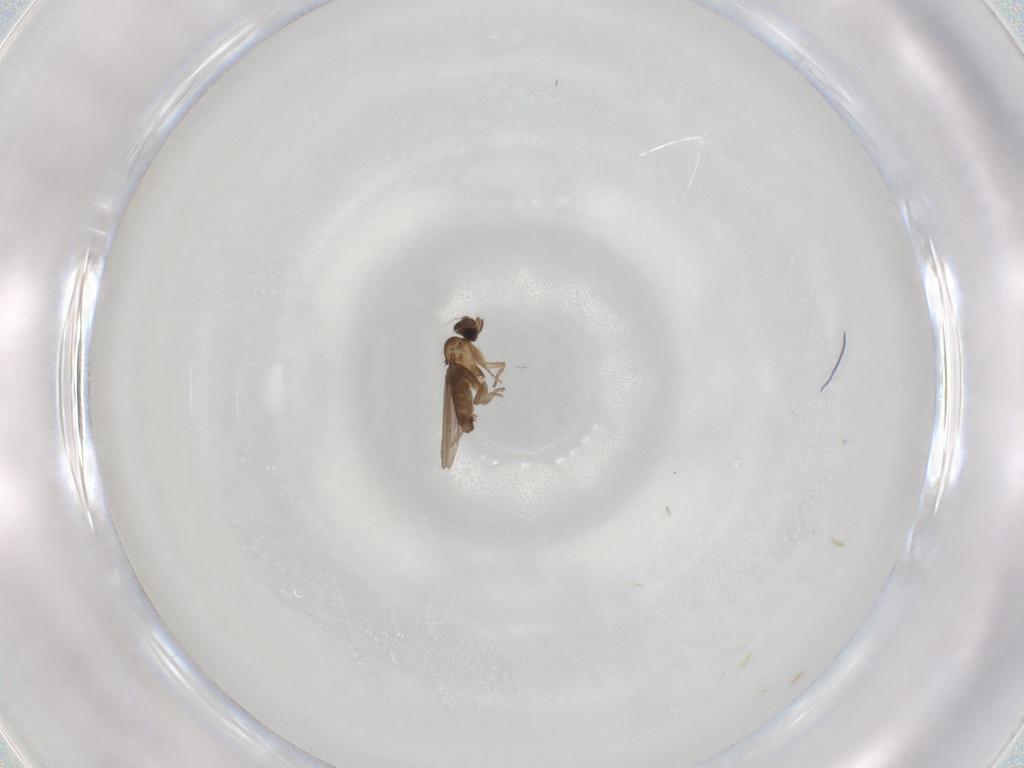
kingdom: Animalia
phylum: Arthropoda
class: Insecta
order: Diptera
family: Phoridae
